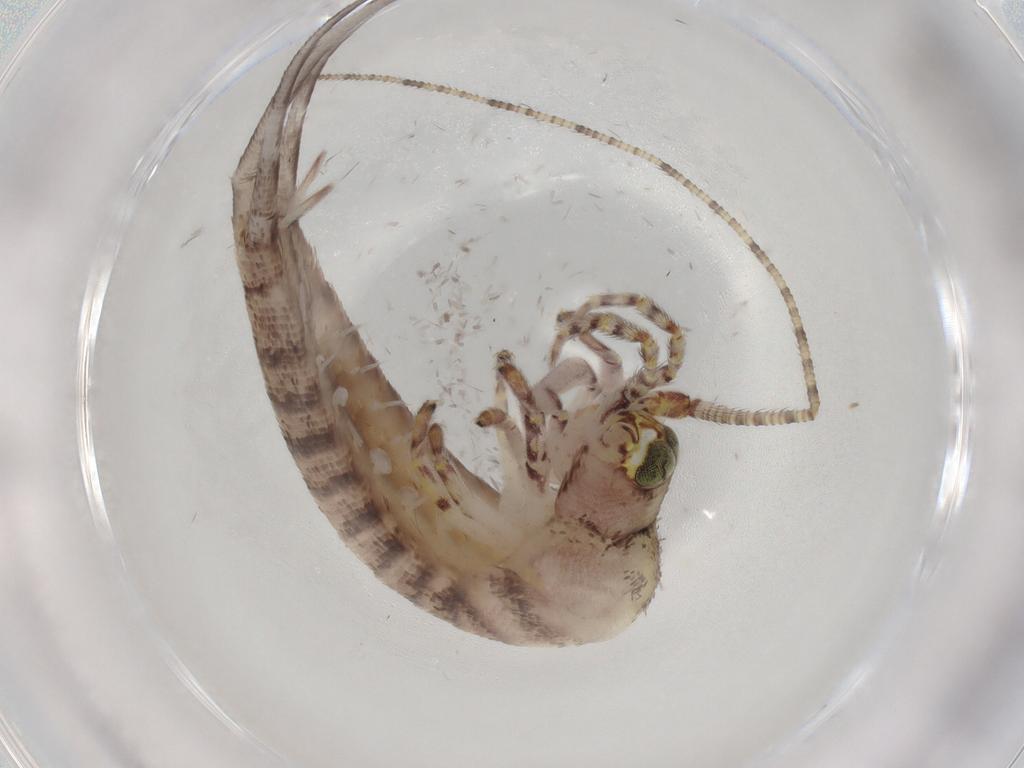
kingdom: Animalia
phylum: Arthropoda
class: Insecta
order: Archaeognatha
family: Machilidae
